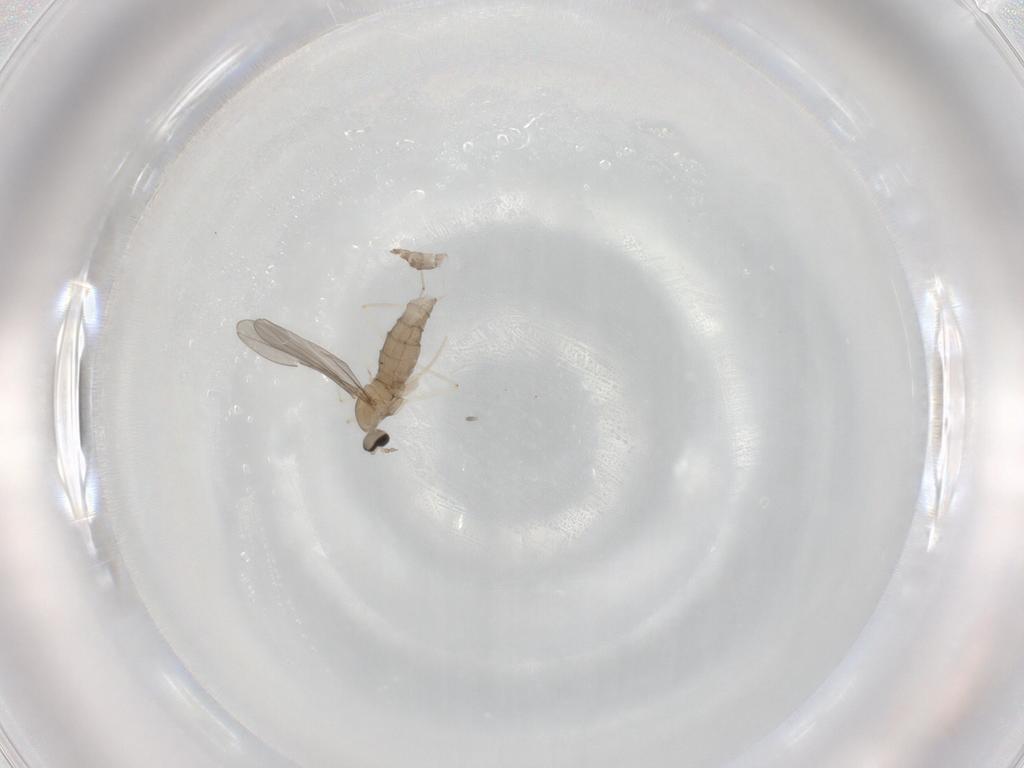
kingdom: Animalia
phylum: Arthropoda
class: Insecta
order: Diptera
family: Cecidomyiidae
